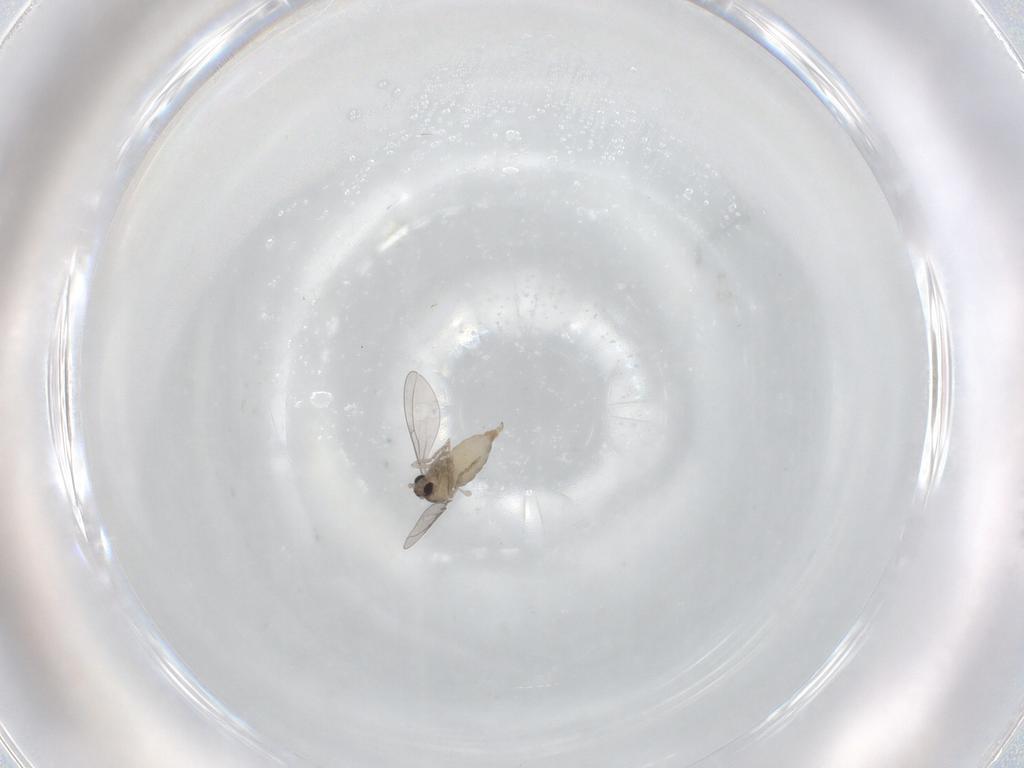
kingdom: Animalia
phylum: Arthropoda
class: Insecta
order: Diptera
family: Cecidomyiidae
